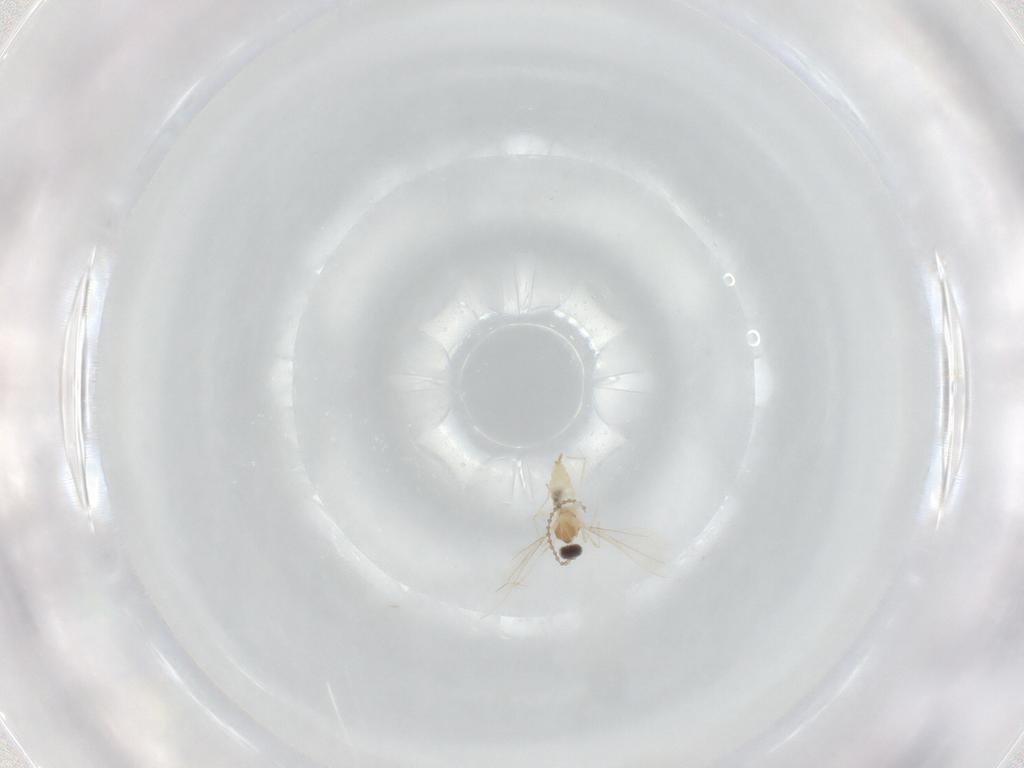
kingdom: Animalia
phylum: Arthropoda
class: Insecta
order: Diptera
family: Cecidomyiidae
